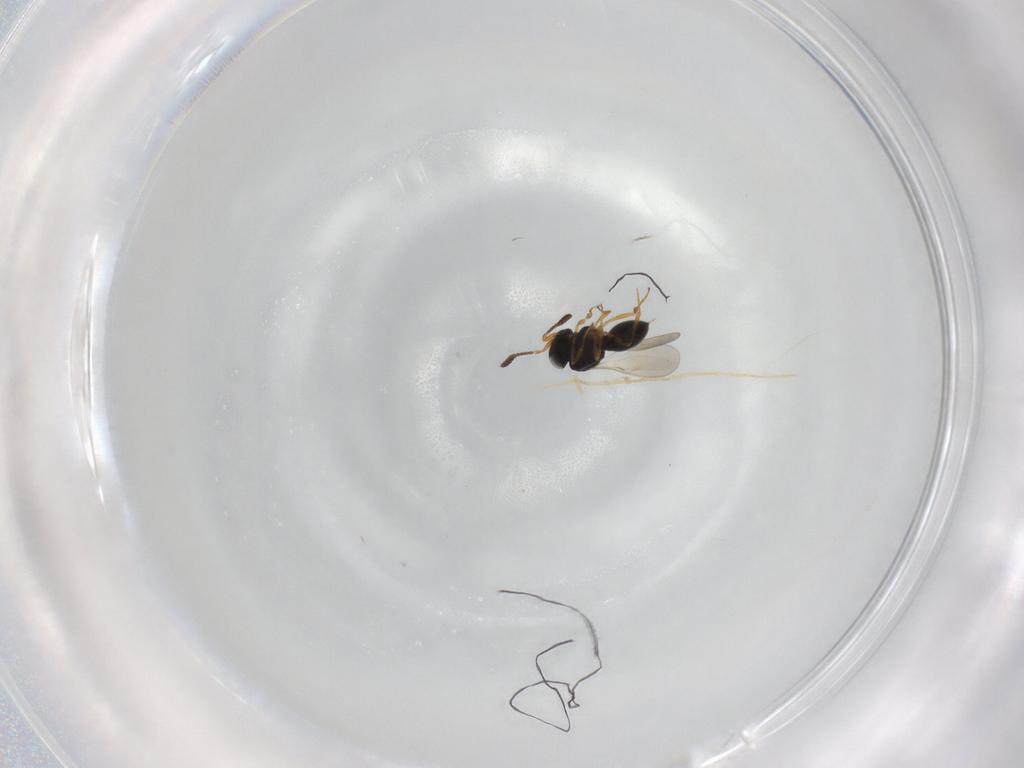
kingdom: Animalia
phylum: Arthropoda
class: Insecta
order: Hymenoptera
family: Scelionidae
